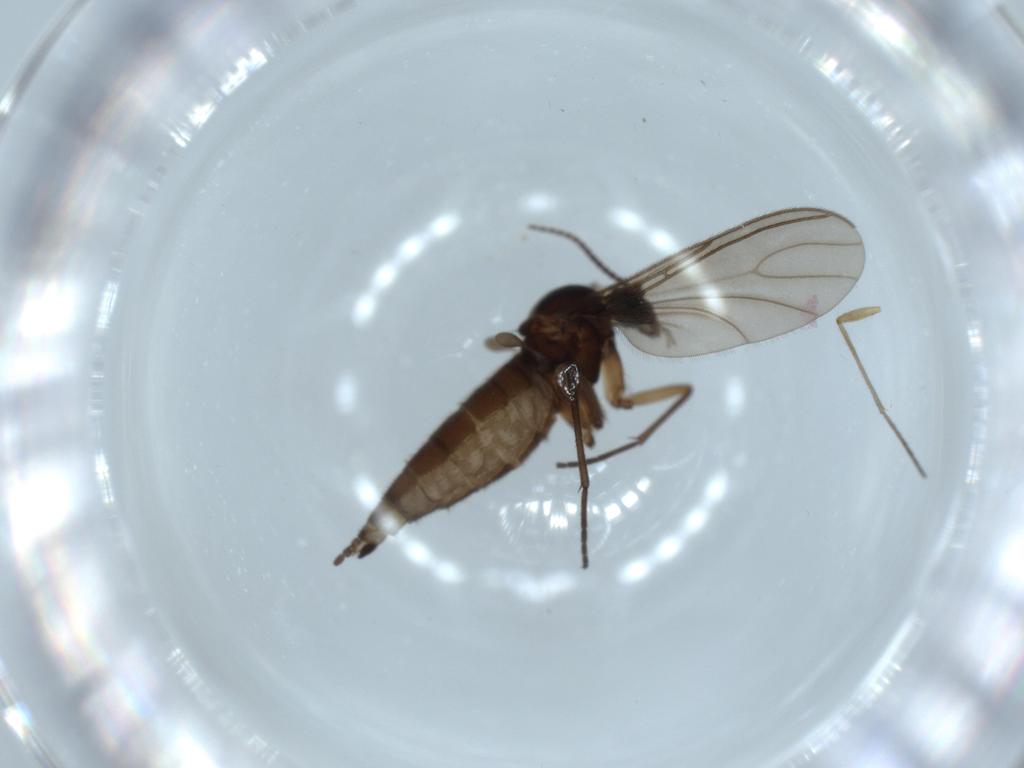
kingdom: Animalia
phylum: Arthropoda
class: Insecta
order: Diptera
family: Sciaridae
